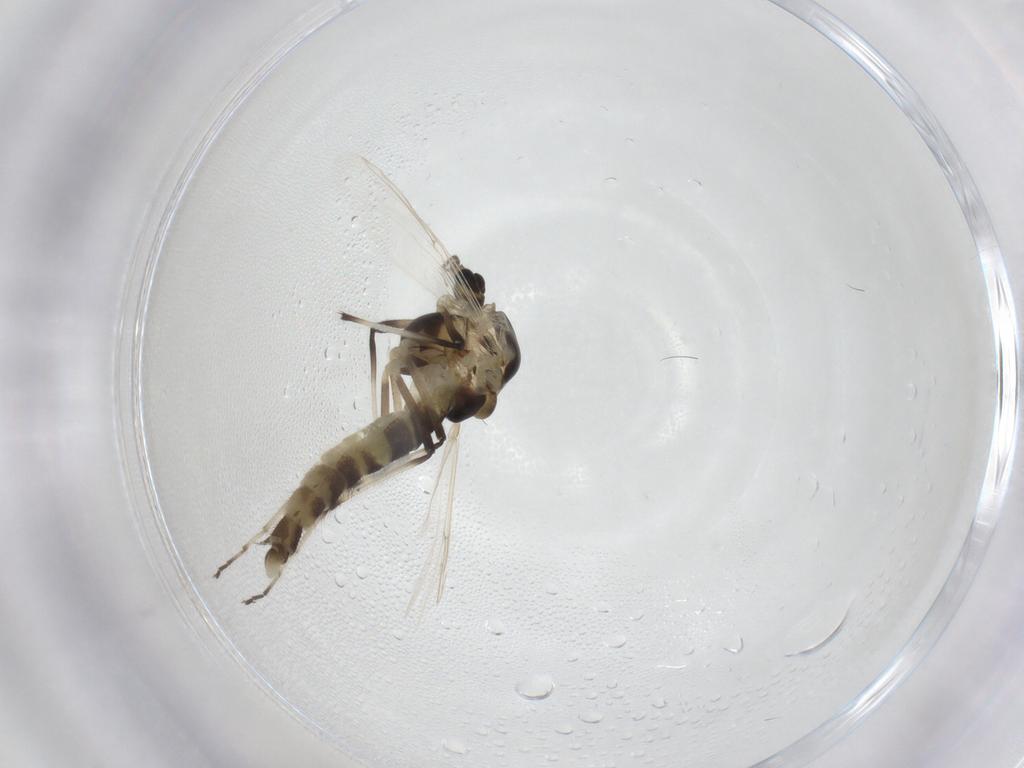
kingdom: Animalia
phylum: Arthropoda
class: Insecta
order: Diptera
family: Chironomidae
